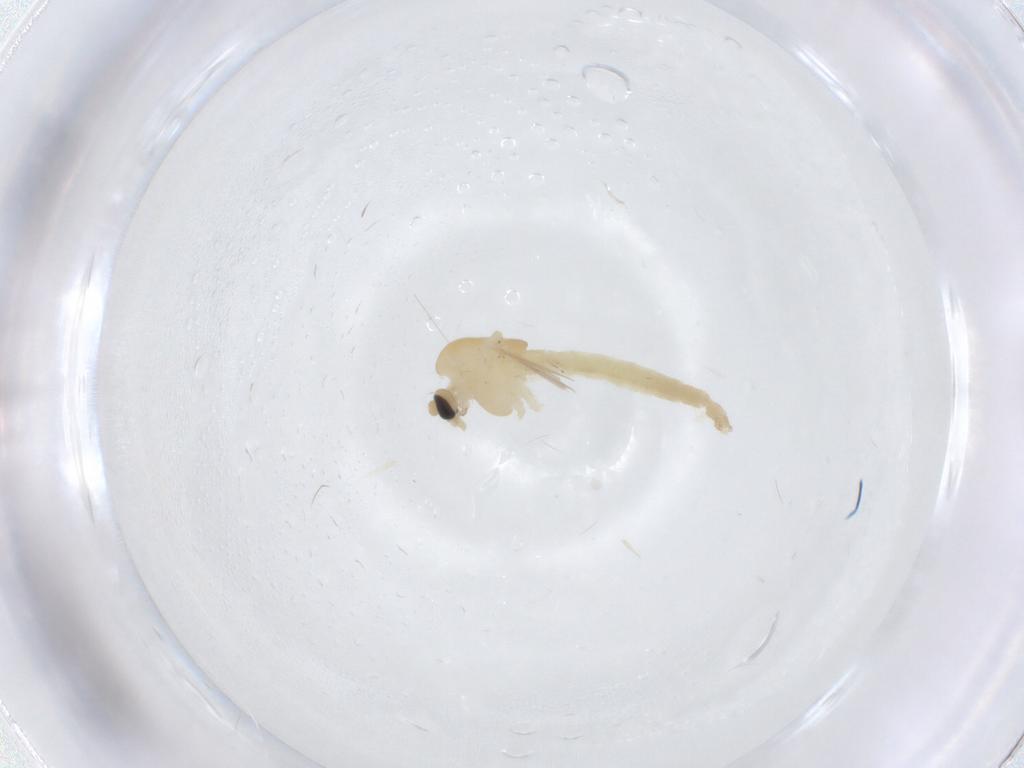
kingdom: Animalia
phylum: Arthropoda
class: Insecta
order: Diptera
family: Chironomidae
